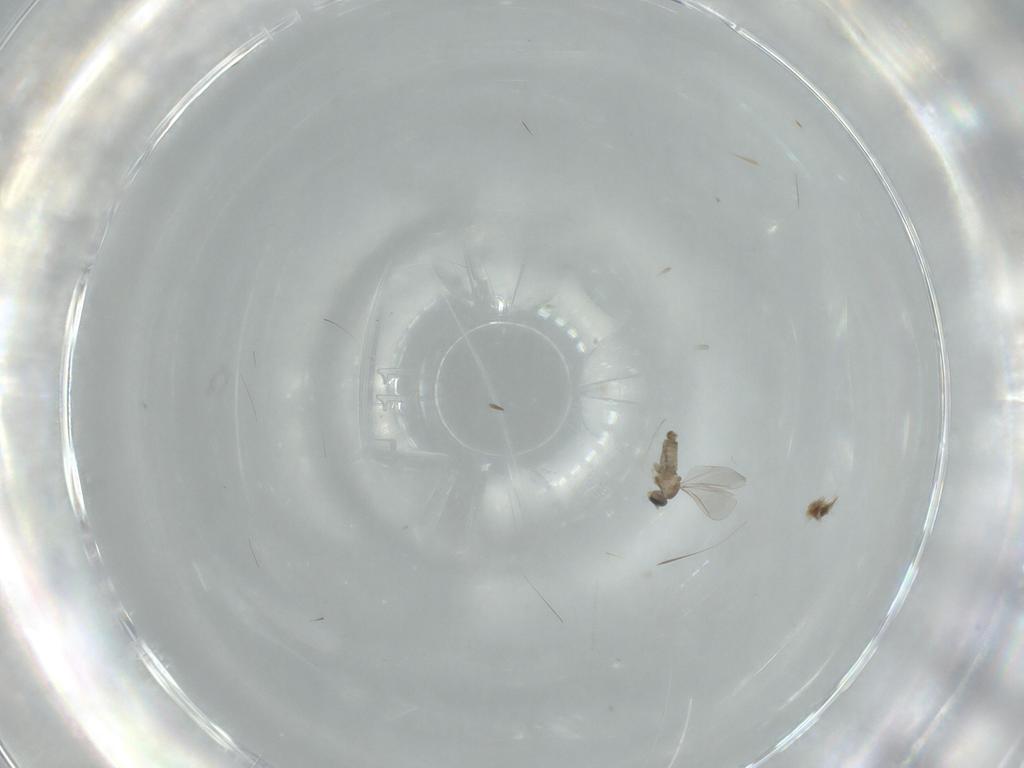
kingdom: Animalia
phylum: Arthropoda
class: Insecta
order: Diptera
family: Cecidomyiidae
